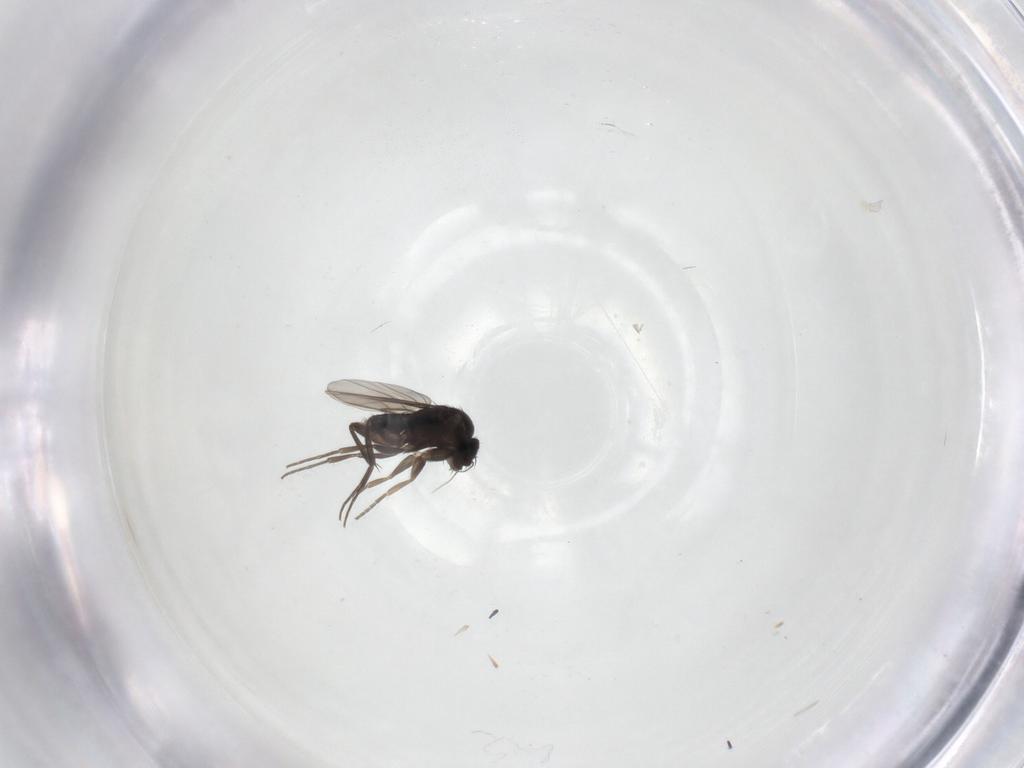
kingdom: Animalia
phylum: Arthropoda
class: Insecta
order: Diptera
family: Phoridae
